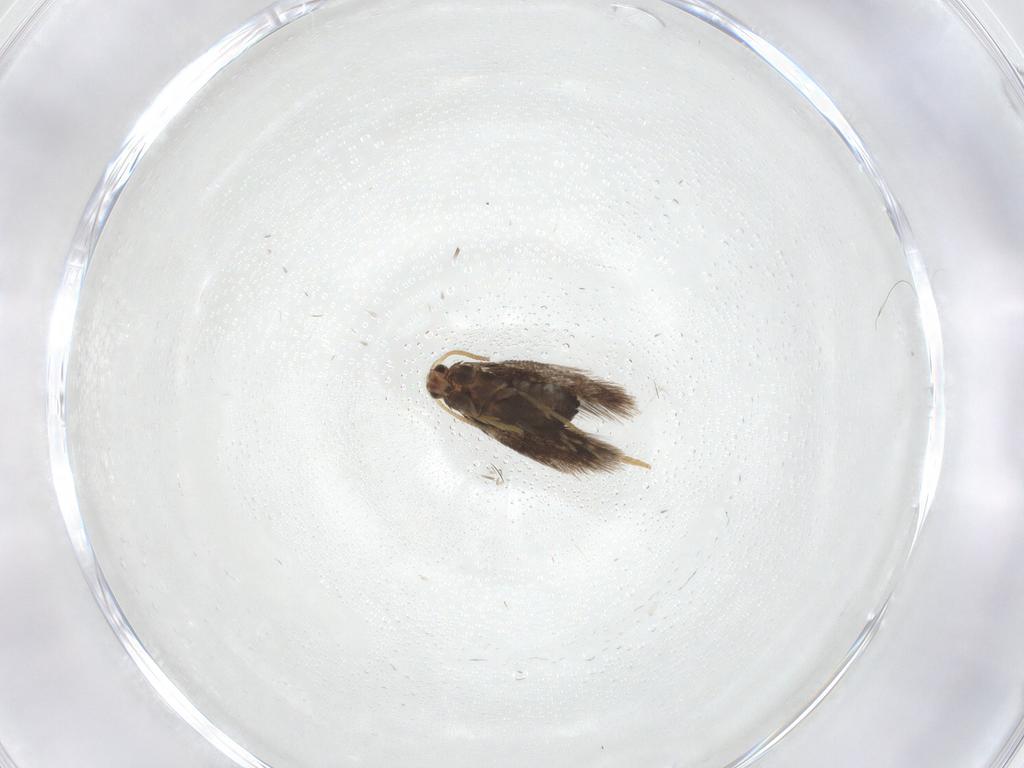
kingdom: Animalia
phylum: Arthropoda
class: Insecta
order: Lepidoptera
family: Nepticulidae
